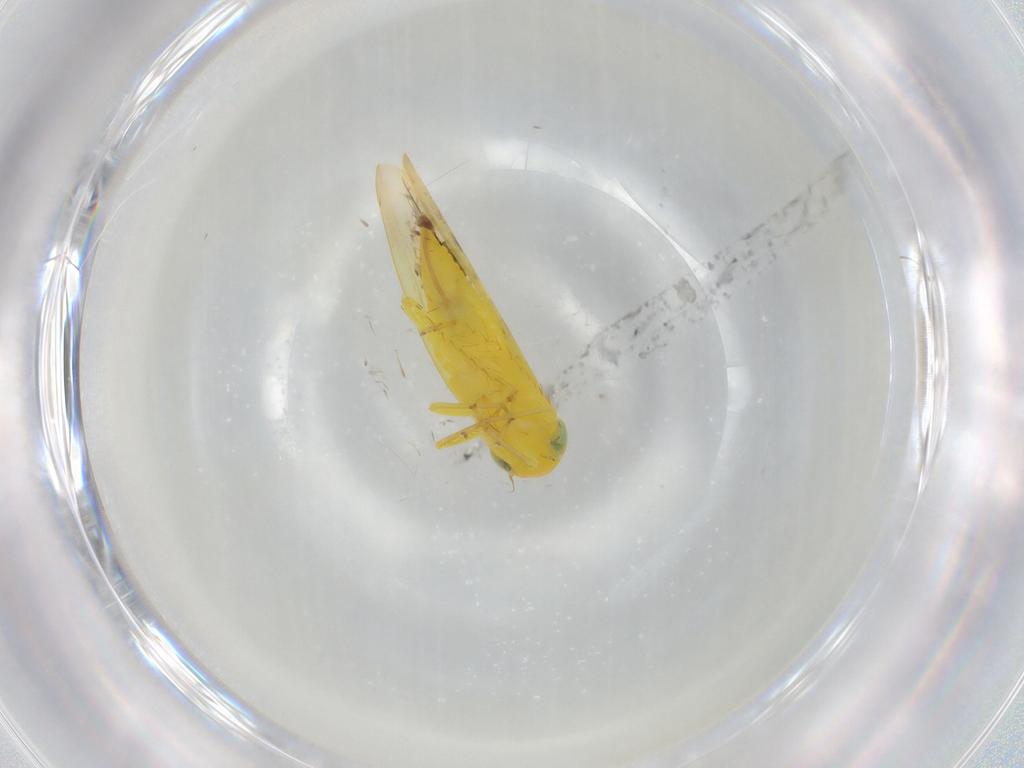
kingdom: Animalia
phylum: Arthropoda
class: Insecta
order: Hemiptera
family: Cicadellidae
